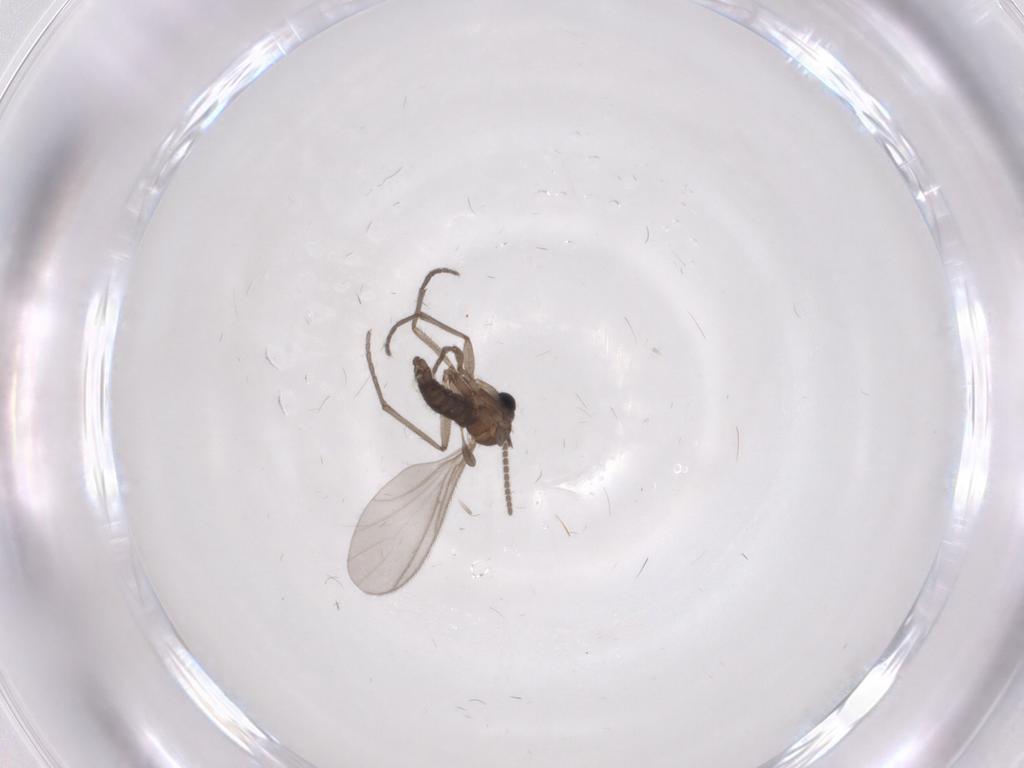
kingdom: Animalia
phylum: Arthropoda
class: Insecta
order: Diptera
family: Sciaridae
